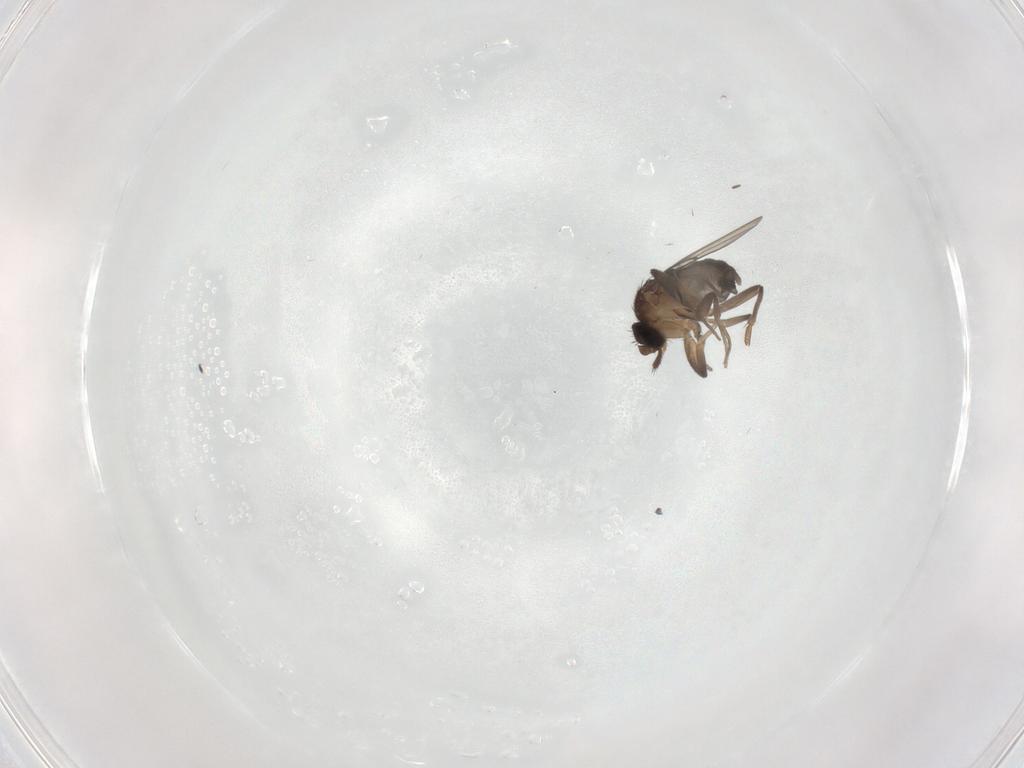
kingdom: Animalia
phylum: Arthropoda
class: Insecta
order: Diptera
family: Phoridae
